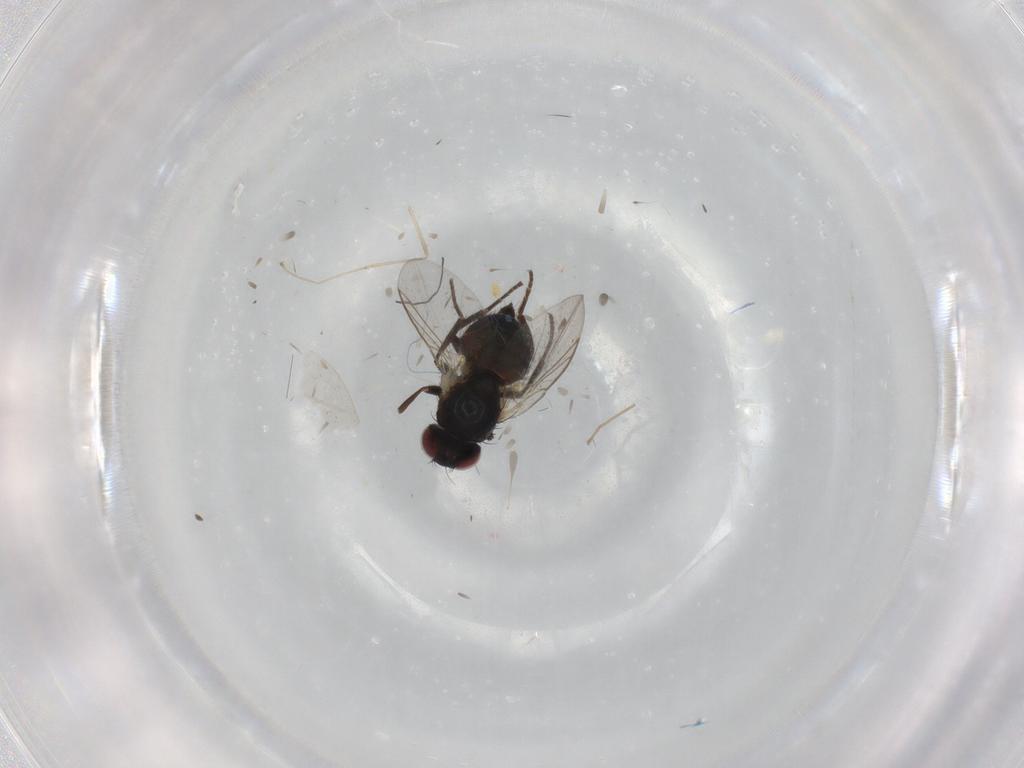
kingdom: Animalia
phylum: Arthropoda
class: Insecta
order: Diptera
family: Agromyzidae
